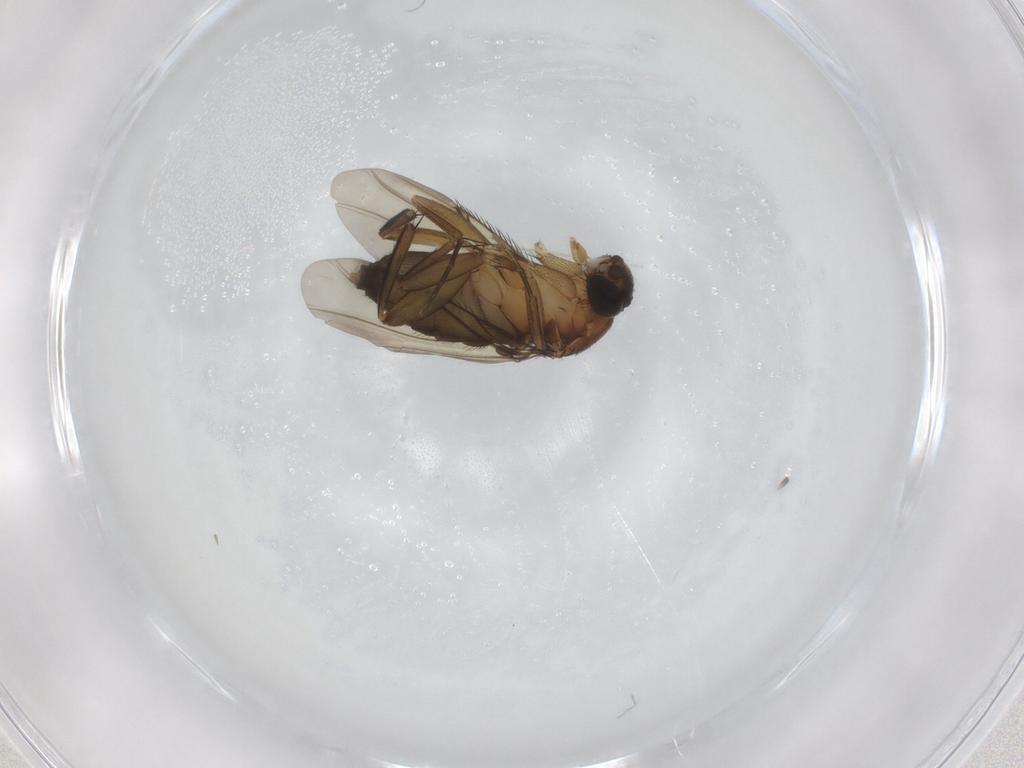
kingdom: Animalia
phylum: Arthropoda
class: Insecta
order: Diptera
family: Phoridae
